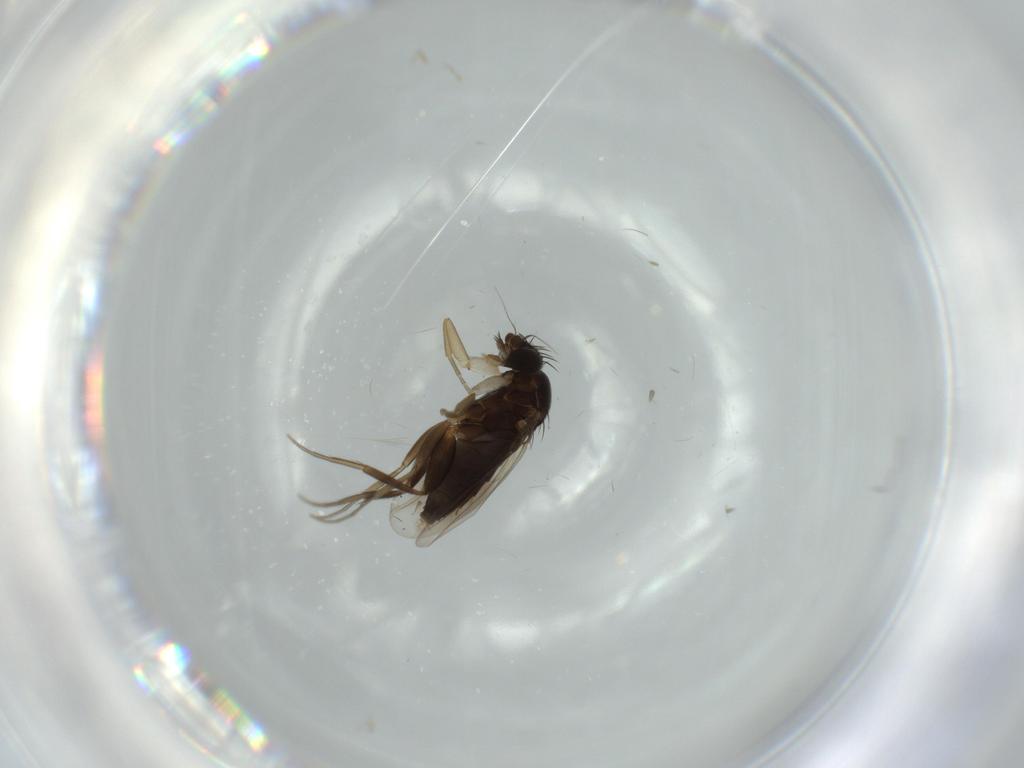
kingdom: Animalia
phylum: Arthropoda
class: Insecta
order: Diptera
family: Phoridae
